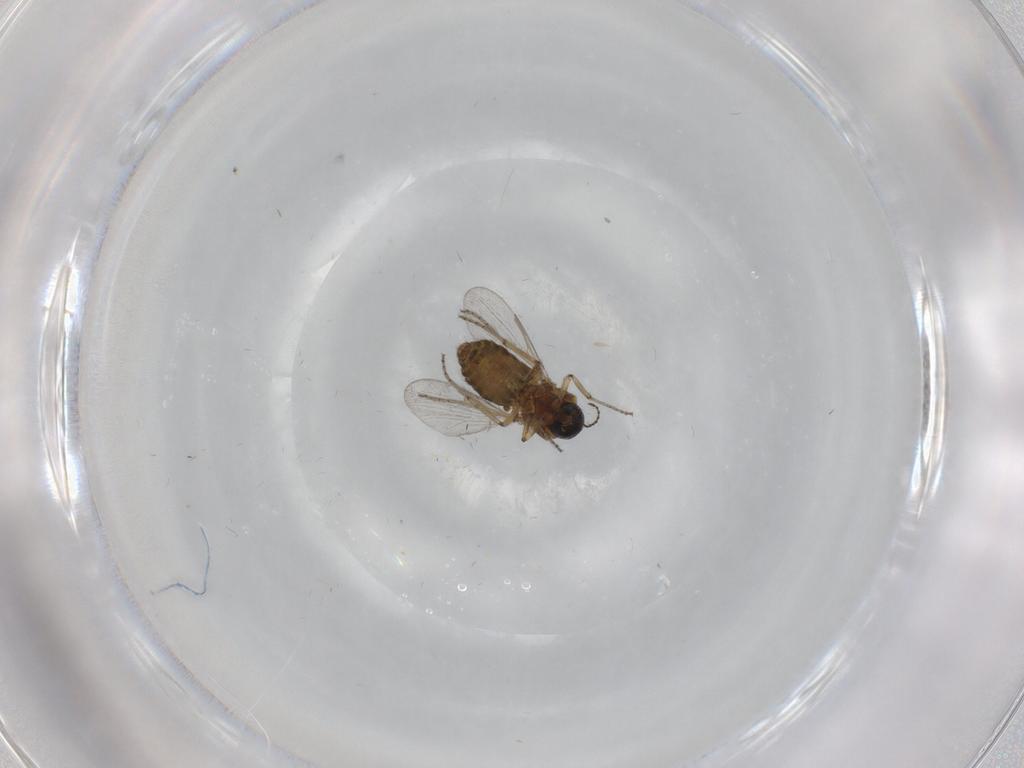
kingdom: Animalia
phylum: Arthropoda
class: Insecta
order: Diptera
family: Ceratopogonidae
